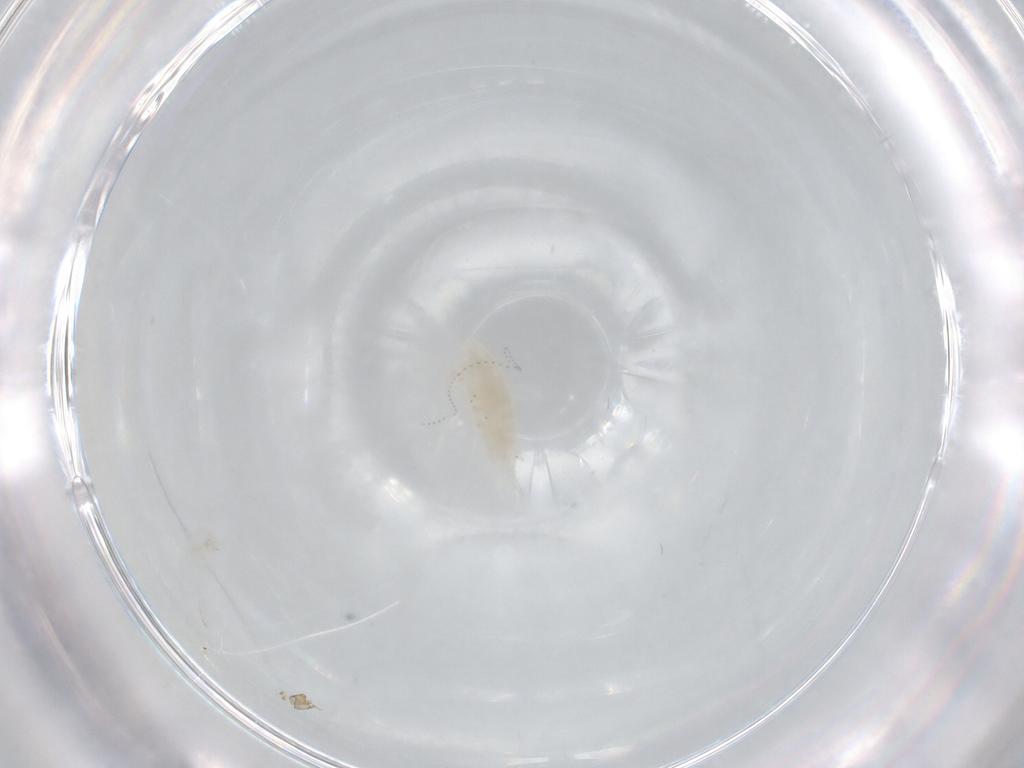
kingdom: Animalia
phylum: Arthropoda
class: Copepoda
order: Calanoida
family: Diaptomidae
